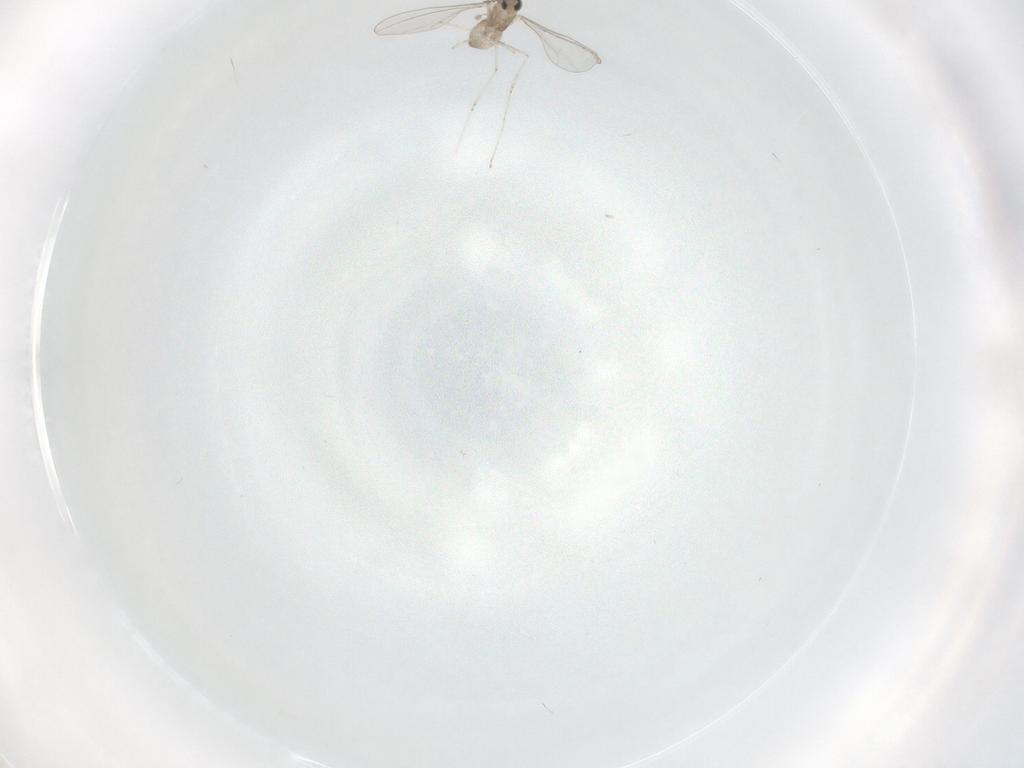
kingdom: Animalia
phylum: Arthropoda
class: Insecta
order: Diptera
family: Cecidomyiidae
